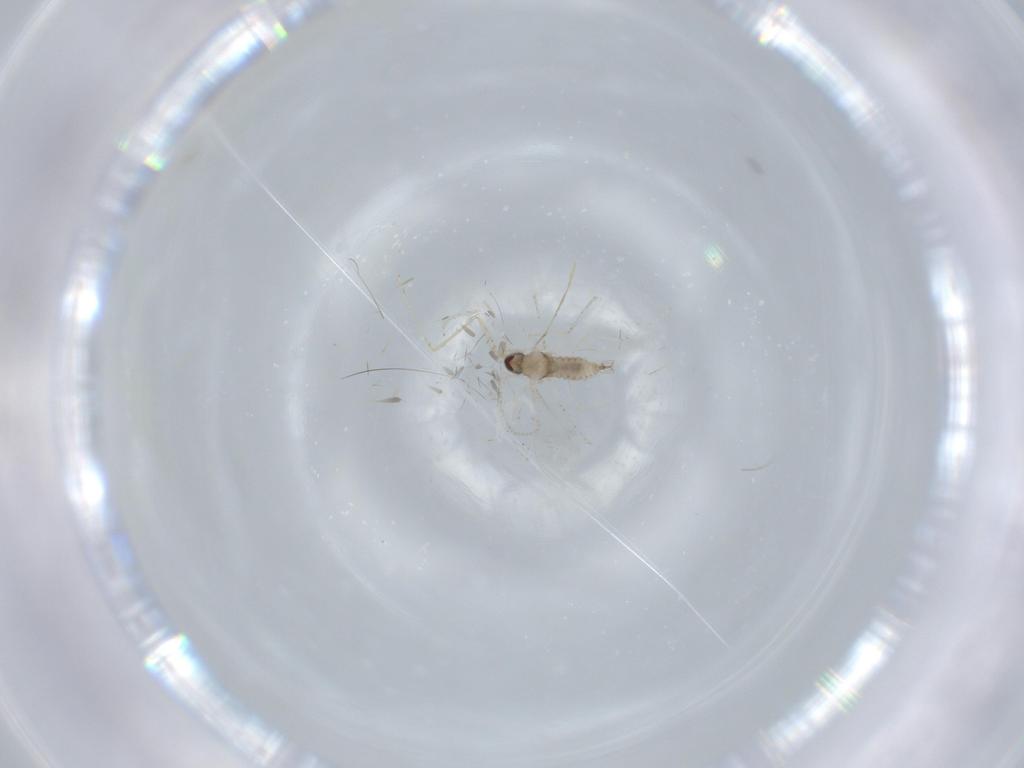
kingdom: Animalia
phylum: Arthropoda
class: Insecta
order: Diptera
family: Cecidomyiidae
